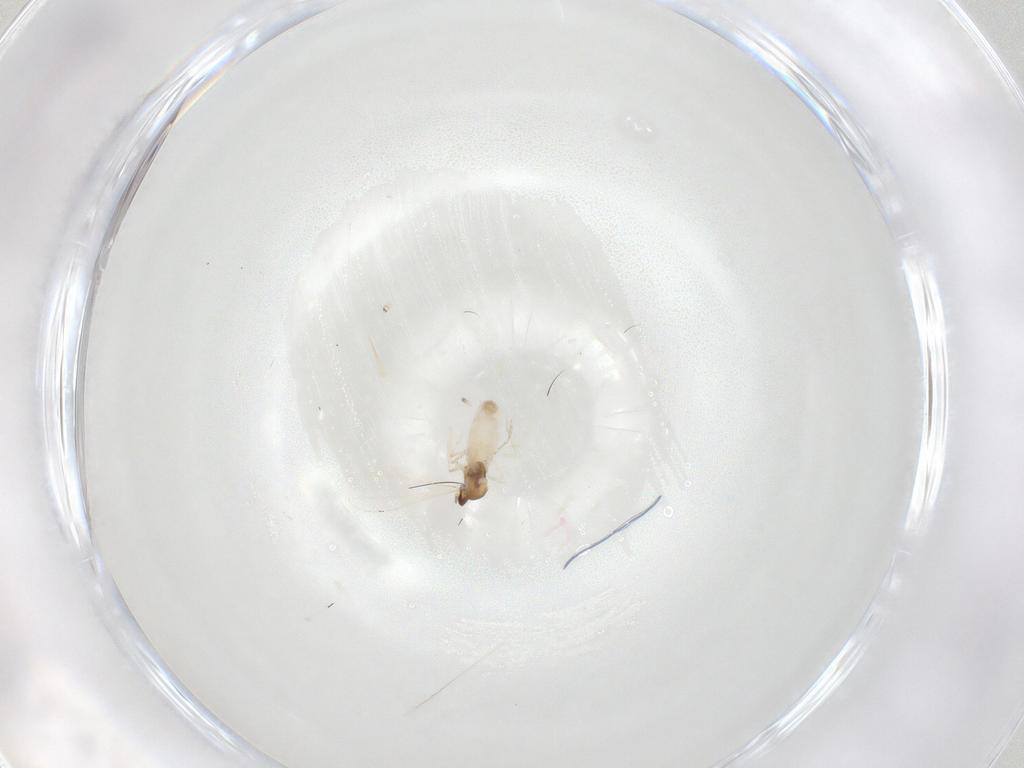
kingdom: Animalia
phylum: Arthropoda
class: Insecta
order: Diptera
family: Cecidomyiidae
